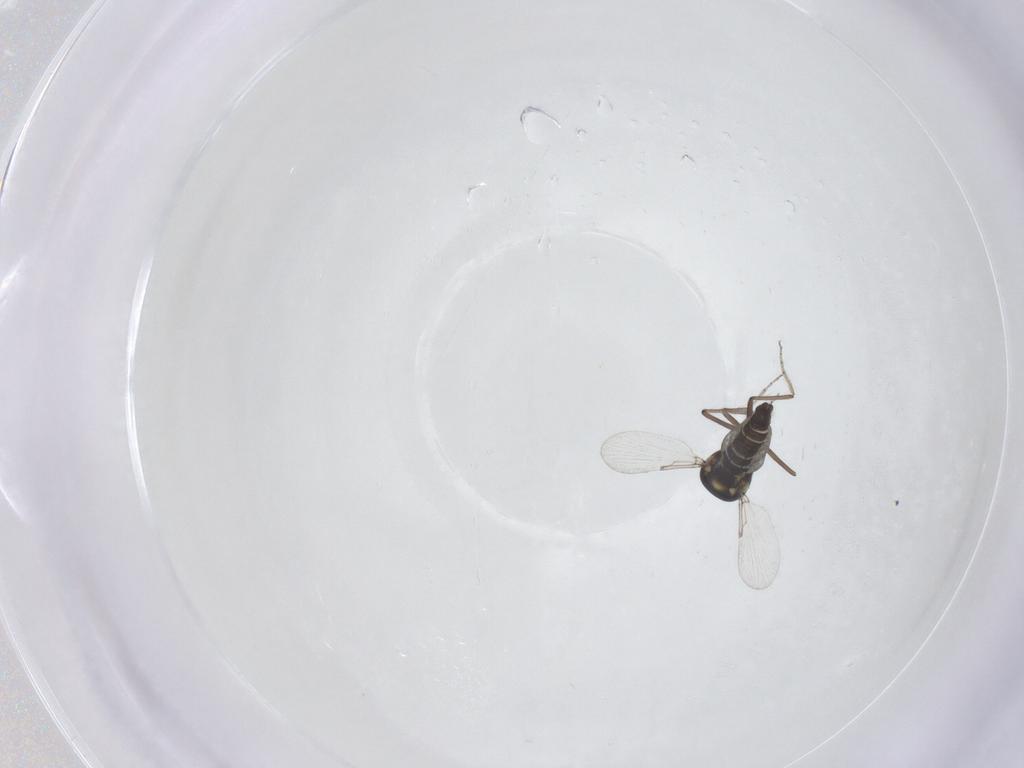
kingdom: Animalia
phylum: Arthropoda
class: Insecta
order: Diptera
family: Ceratopogonidae
